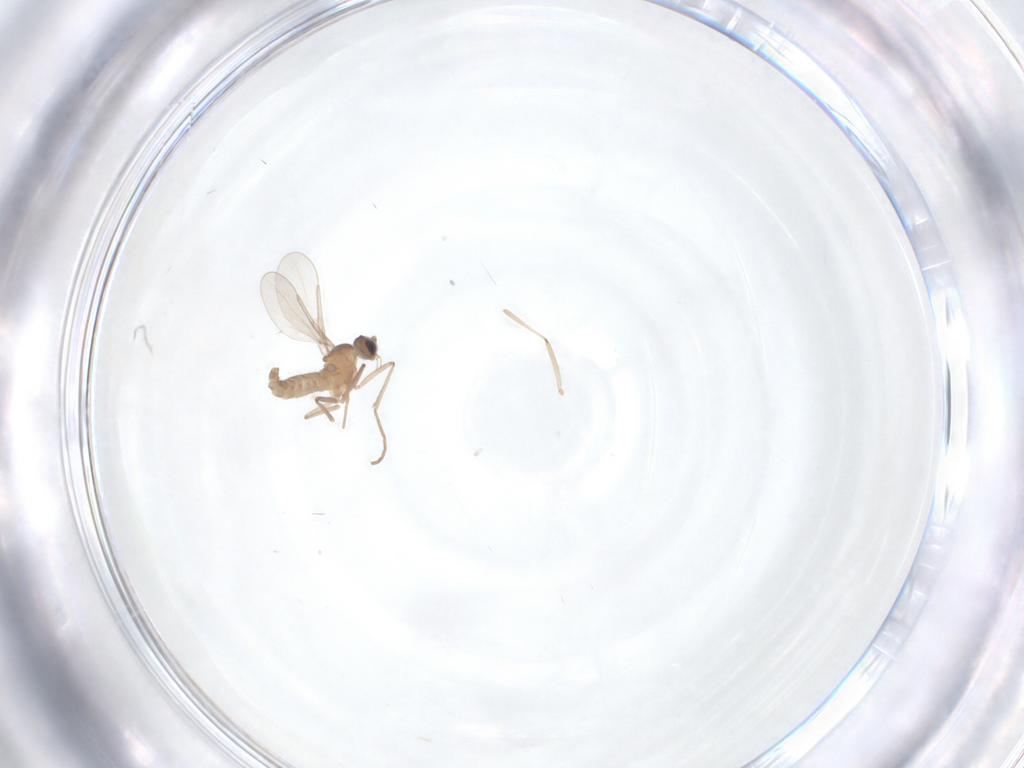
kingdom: Animalia
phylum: Arthropoda
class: Insecta
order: Diptera
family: Cecidomyiidae
